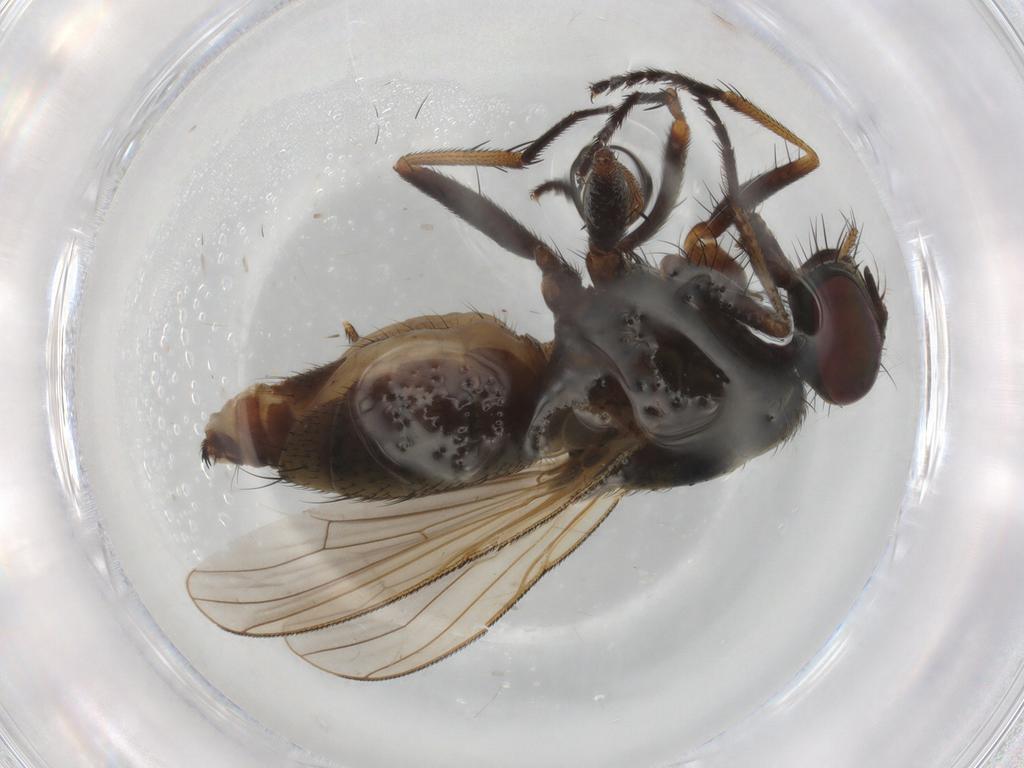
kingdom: Animalia
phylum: Arthropoda
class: Insecta
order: Diptera
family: Muscidae
